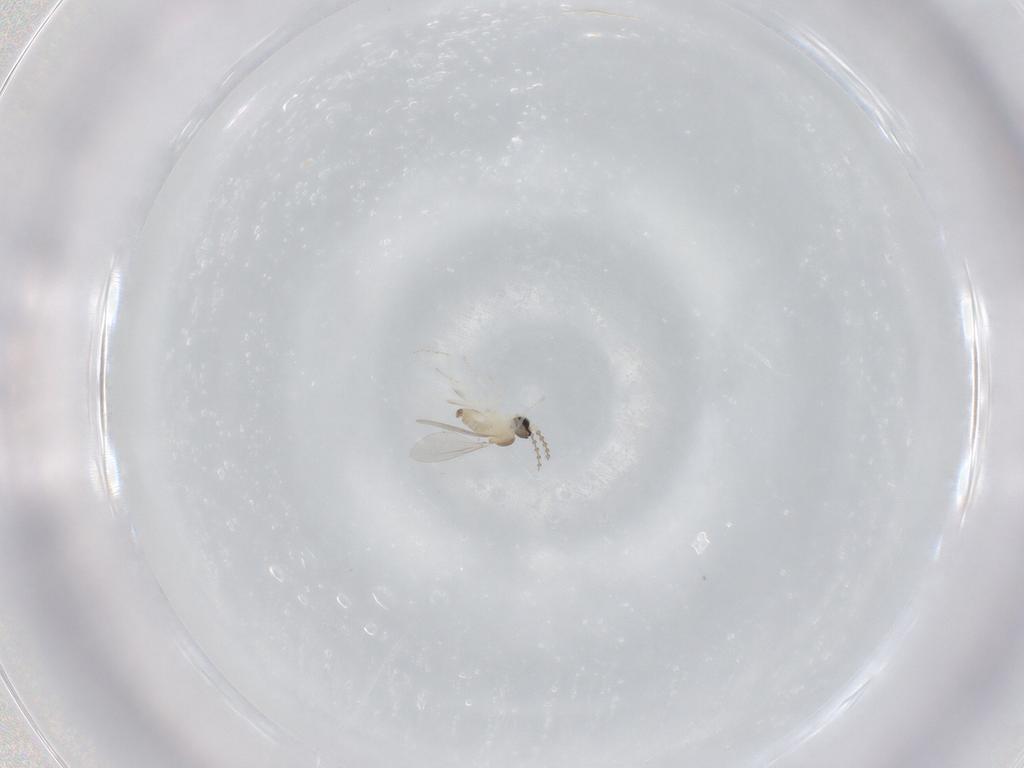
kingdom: Animalia
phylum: Arthropoda
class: Insecta
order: Diptera
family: Cecidomyiidae
